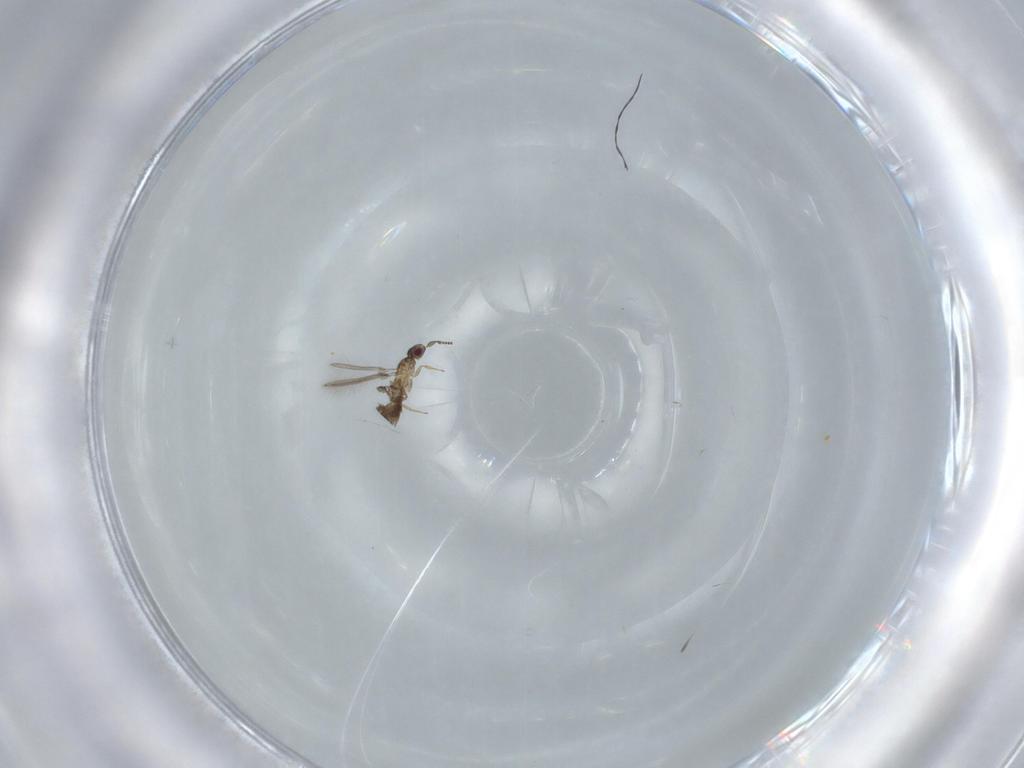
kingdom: Animalia
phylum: Arthropoda
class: Insecta
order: Hymenoptera
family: Mymaridae
